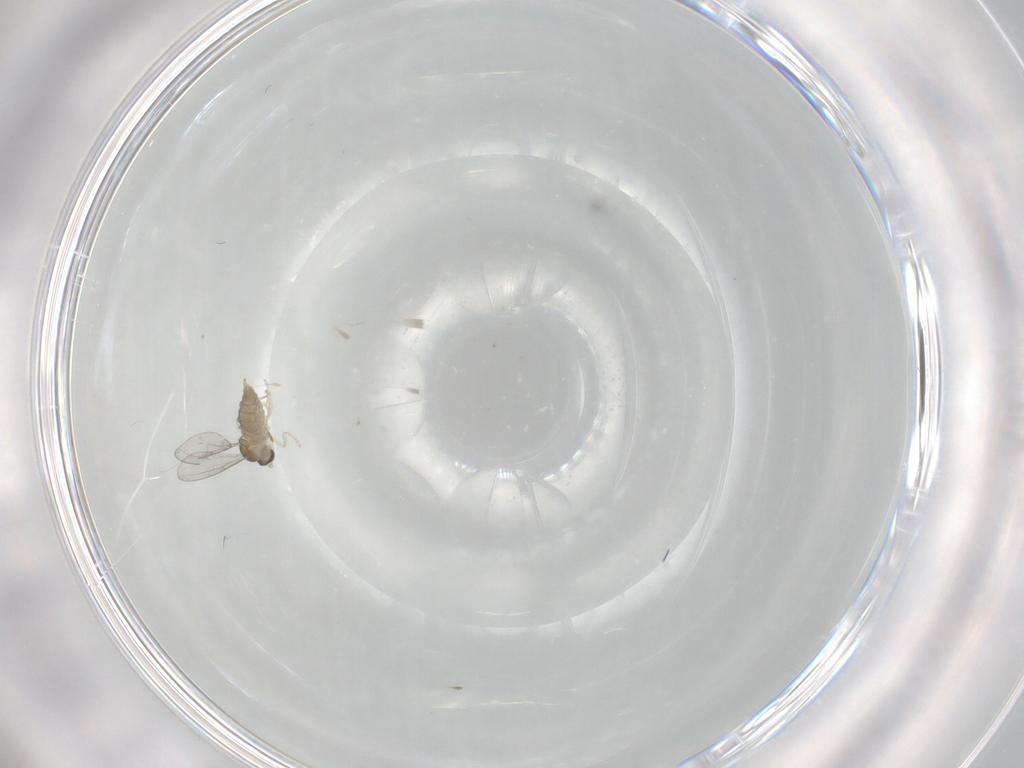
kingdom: Animalia
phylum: Arthropoda
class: Insecta
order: Diptera
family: Cecidomyiidae
